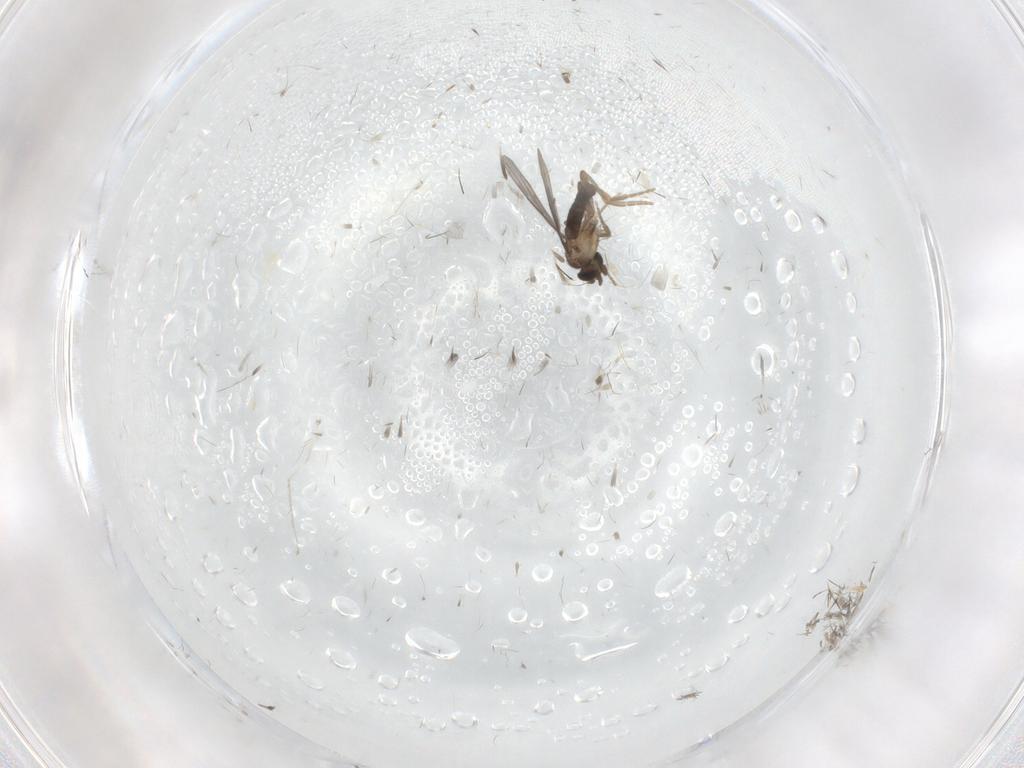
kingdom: Animalia
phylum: Arthropoda
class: Insecta
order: Diptera
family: Cecidomyiidae
